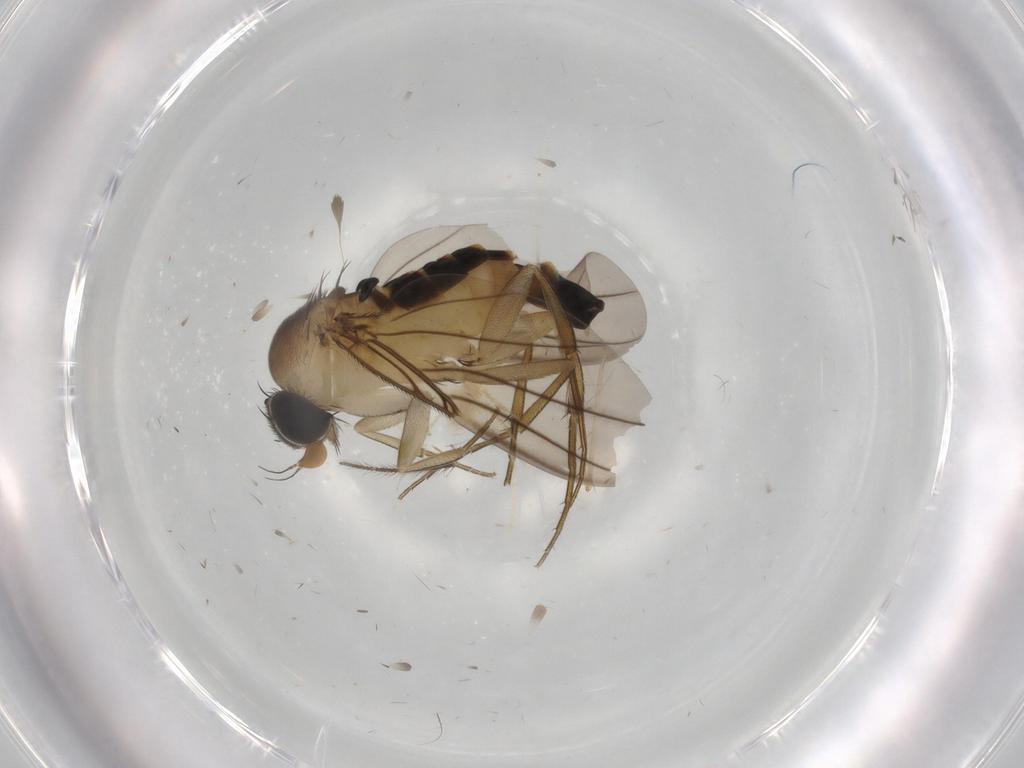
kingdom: Animalia
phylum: Arthropoda
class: Insecta
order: Diptera
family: Phoridae
